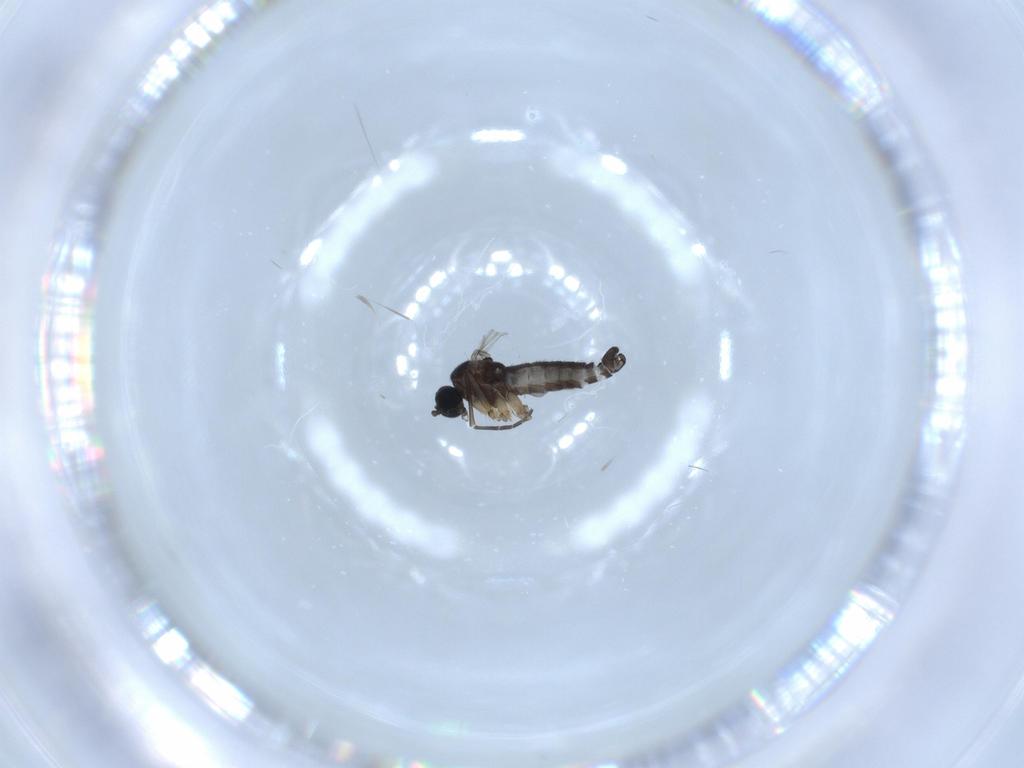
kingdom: Animalia
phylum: Arthropoda
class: Insecta
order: Diptera
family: Sciaridae
